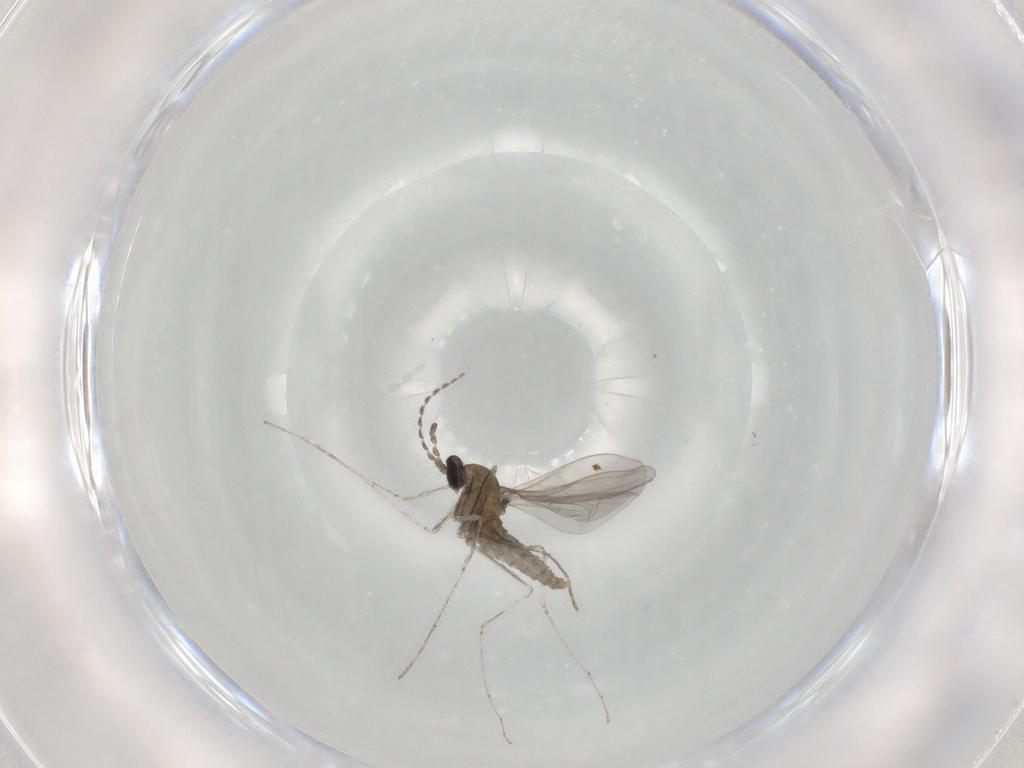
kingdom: Animalia
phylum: Arthropoda
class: Insecta
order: Diptera
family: Cecidomyiidae
